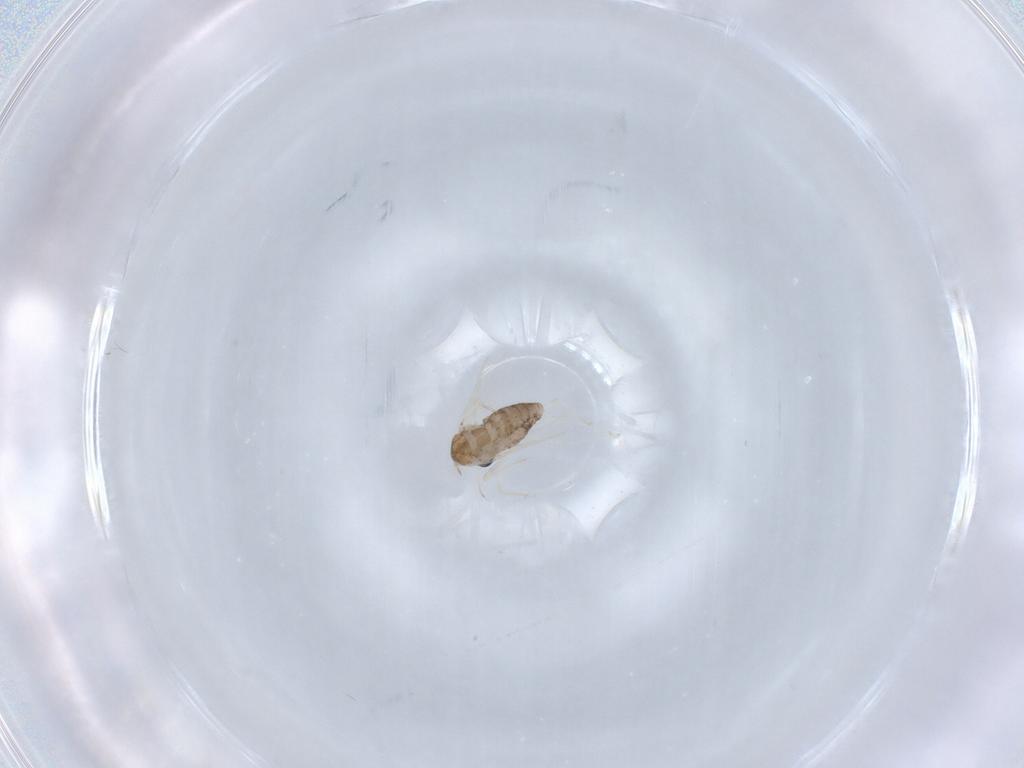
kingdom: Animalia
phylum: Arthropoda
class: Insecta
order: Diptera
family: Chironomidae
